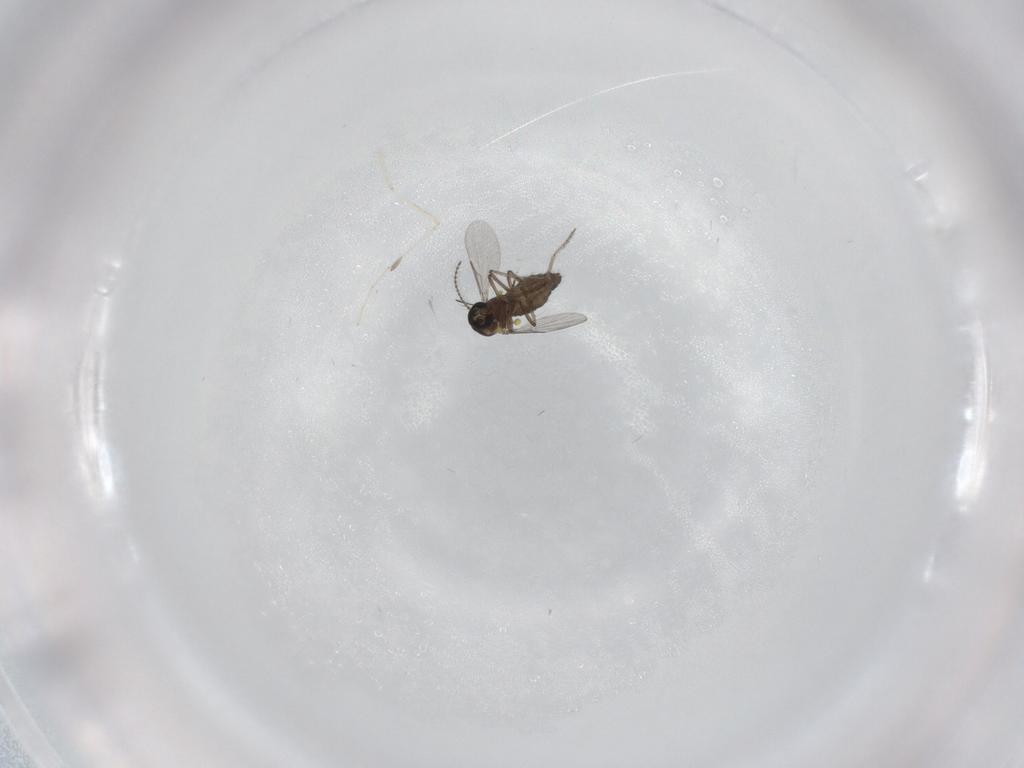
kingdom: Animalia
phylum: Arthropoda
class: Insecta
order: Diptera
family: Ceratopogonidae
